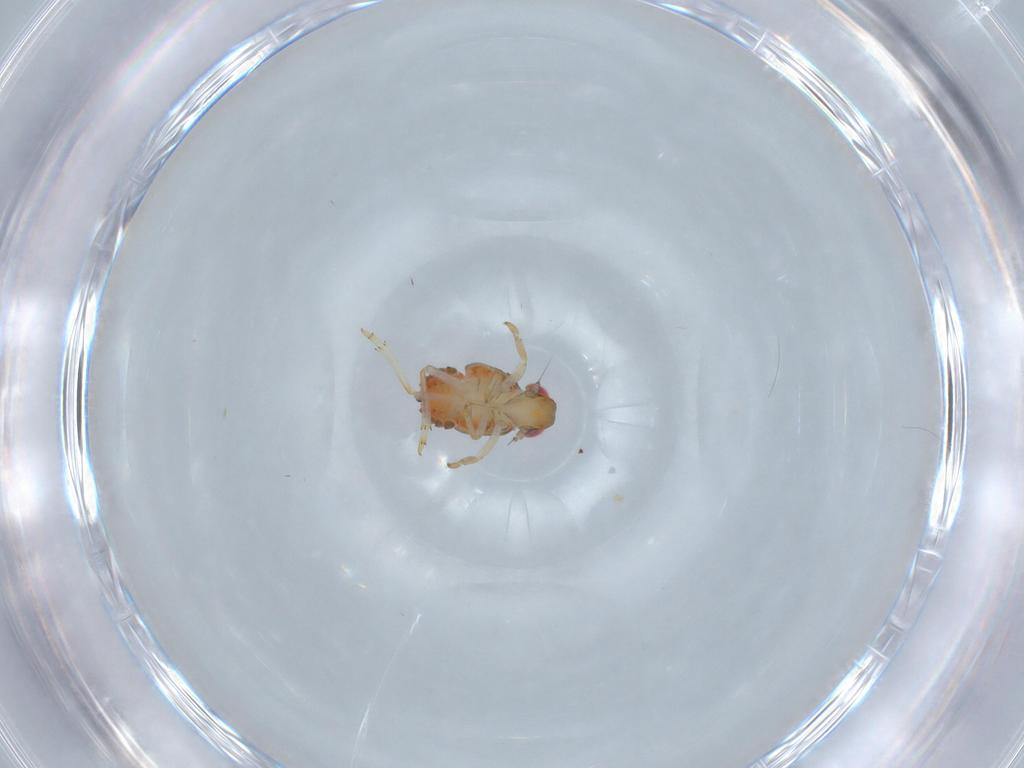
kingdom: Animalia
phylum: Arthropoda
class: Insecta
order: Hemiptera
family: Issidae
